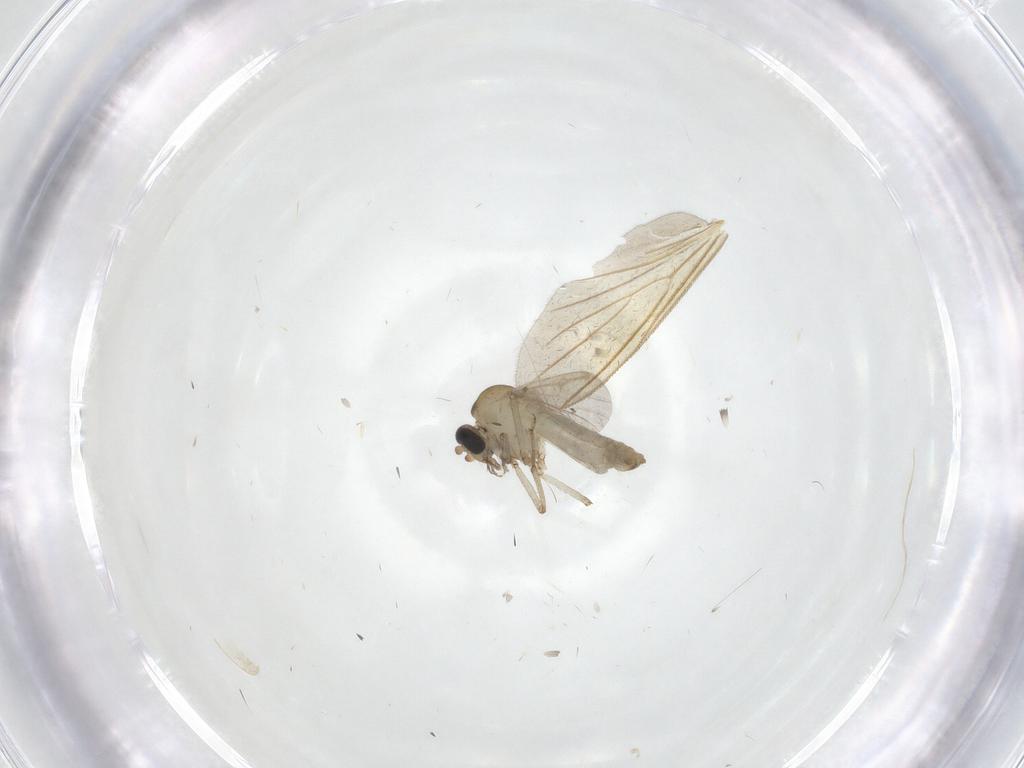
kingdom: Animalia
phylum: Arthropoda
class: Insecta
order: Diptera
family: Ceratopogonidae
